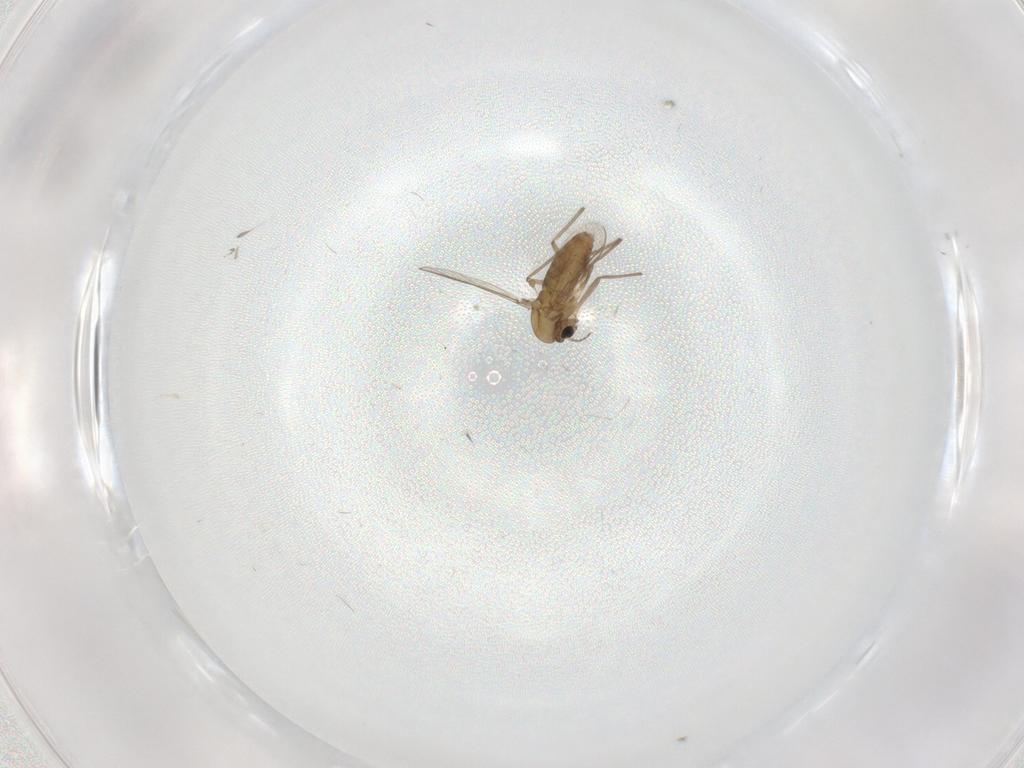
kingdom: Animalia
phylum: Arthropoda
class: Insecta
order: Diptera
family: Chironomidae
